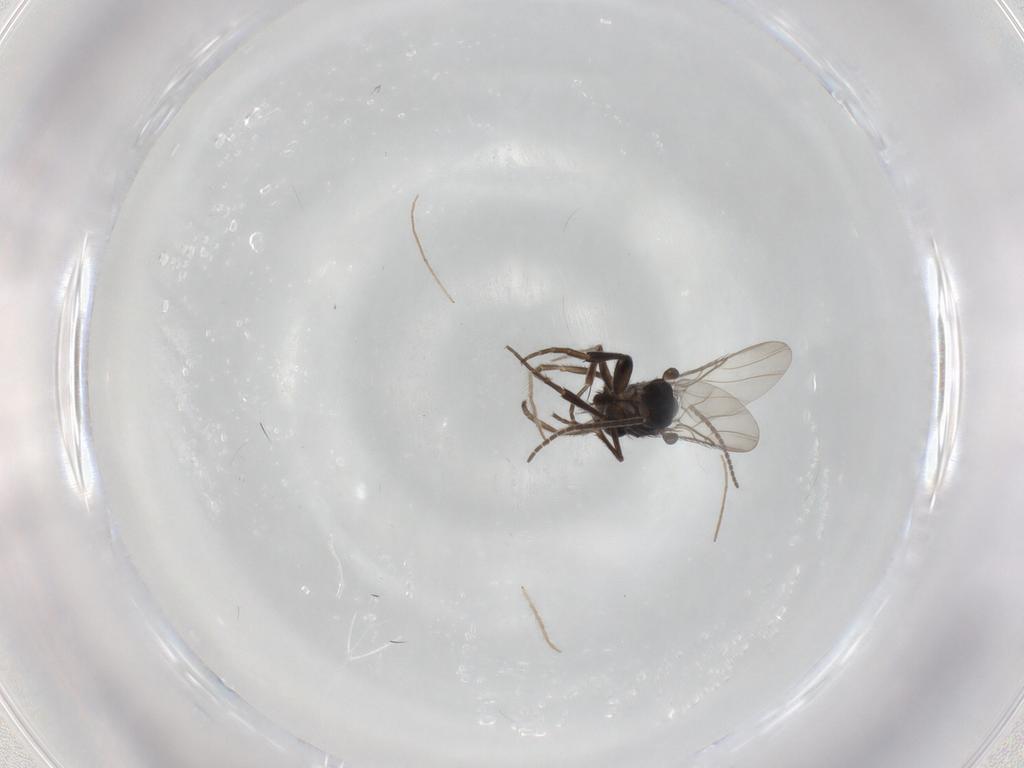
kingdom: Animalia
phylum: Arthropoda
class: Insecta
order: Diptera
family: Phoridae
